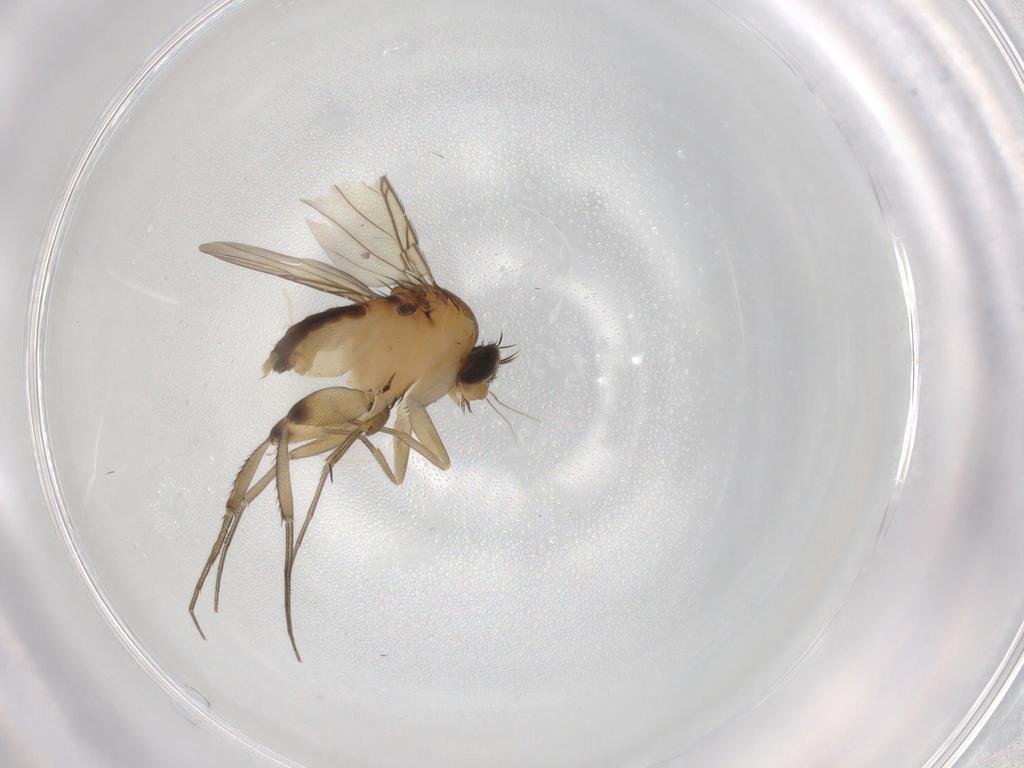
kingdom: Animalia
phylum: Arthropoda
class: Insecta
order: Diptera
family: Phoridae
